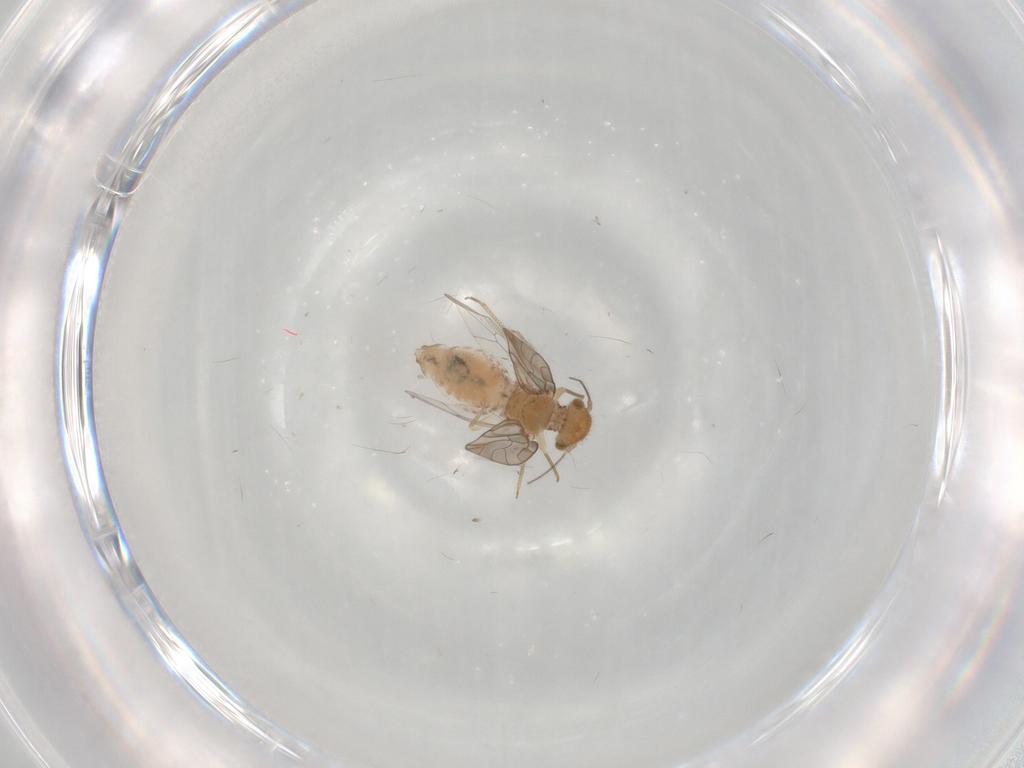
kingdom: Animalia
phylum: Arthropoda
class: Insecta
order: Psocodea
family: Ectopsocidae
